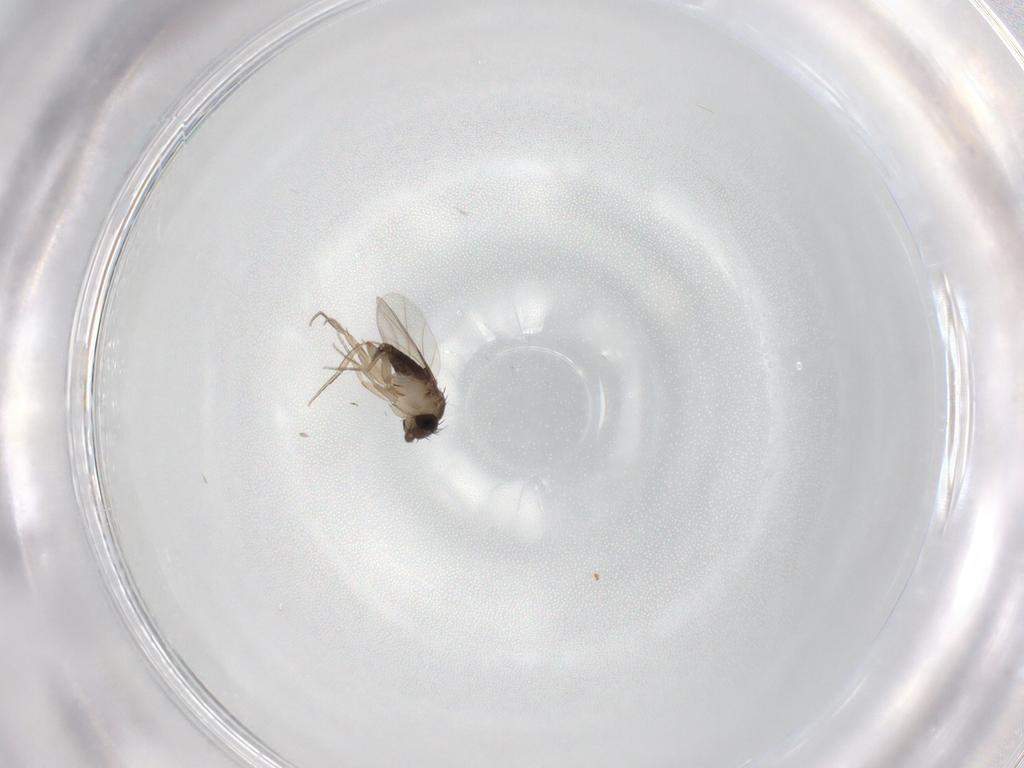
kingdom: Animalia
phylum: Arthropoda
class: Insecta
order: Diptera
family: Phoridae
